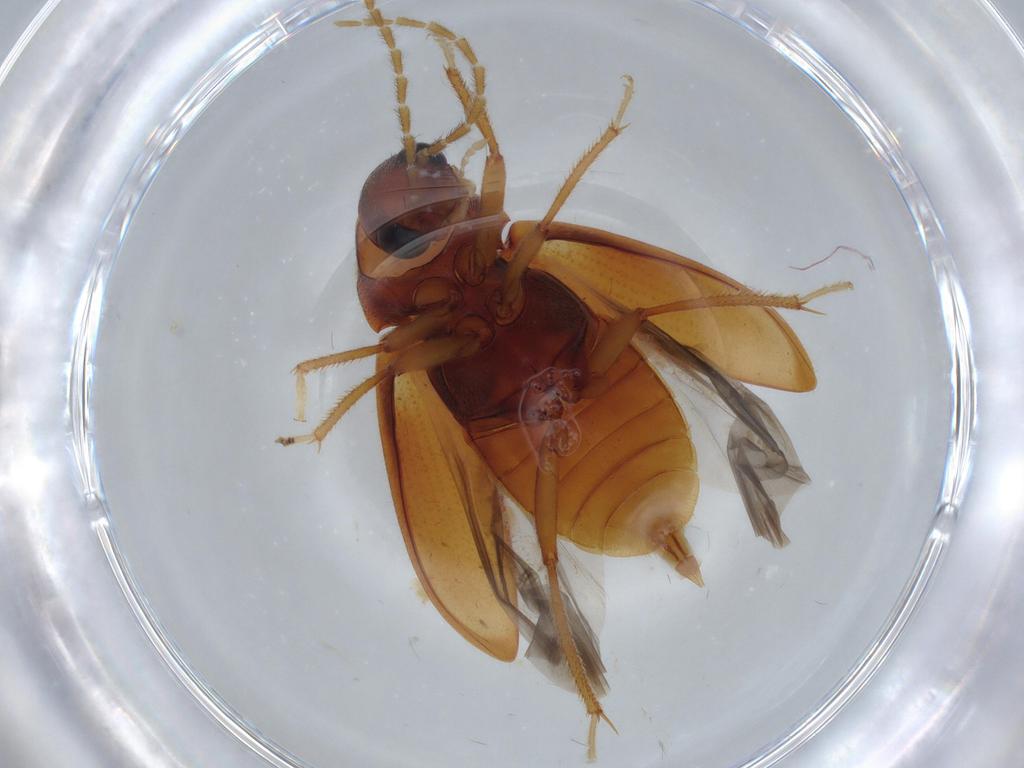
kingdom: Animalia
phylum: Arthropoda
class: Insecta
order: Coleoptera
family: Ptilodactylidae
